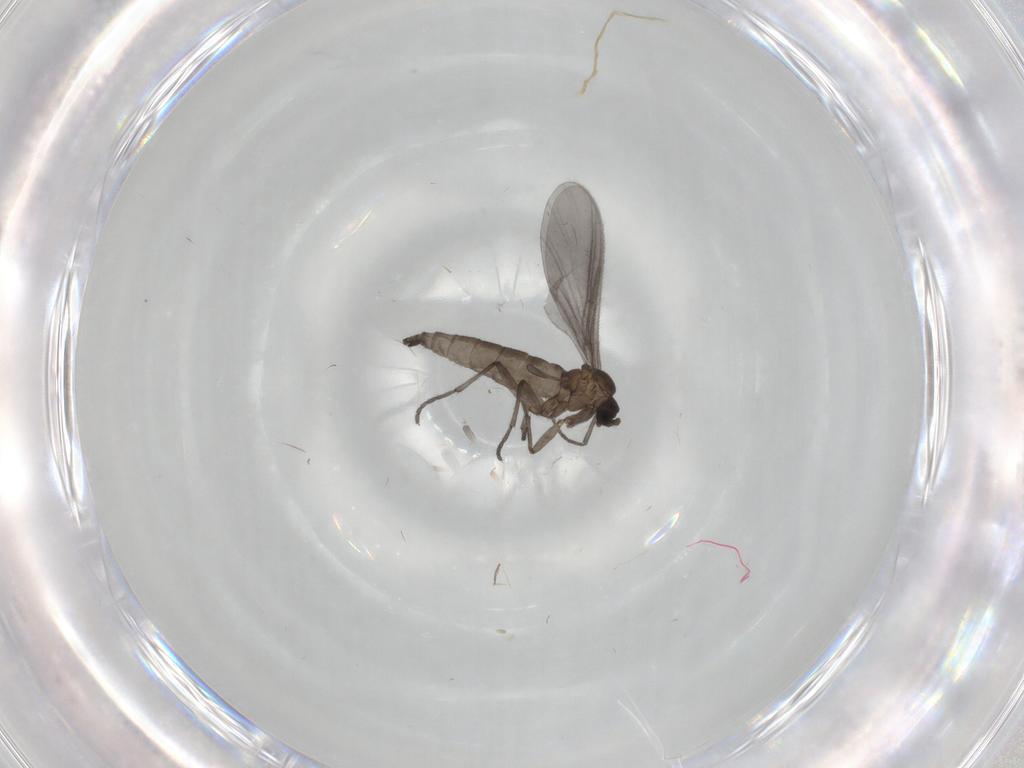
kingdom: Animalia
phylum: Arthropoda
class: Insecta
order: Diptera
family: Sciaridae
